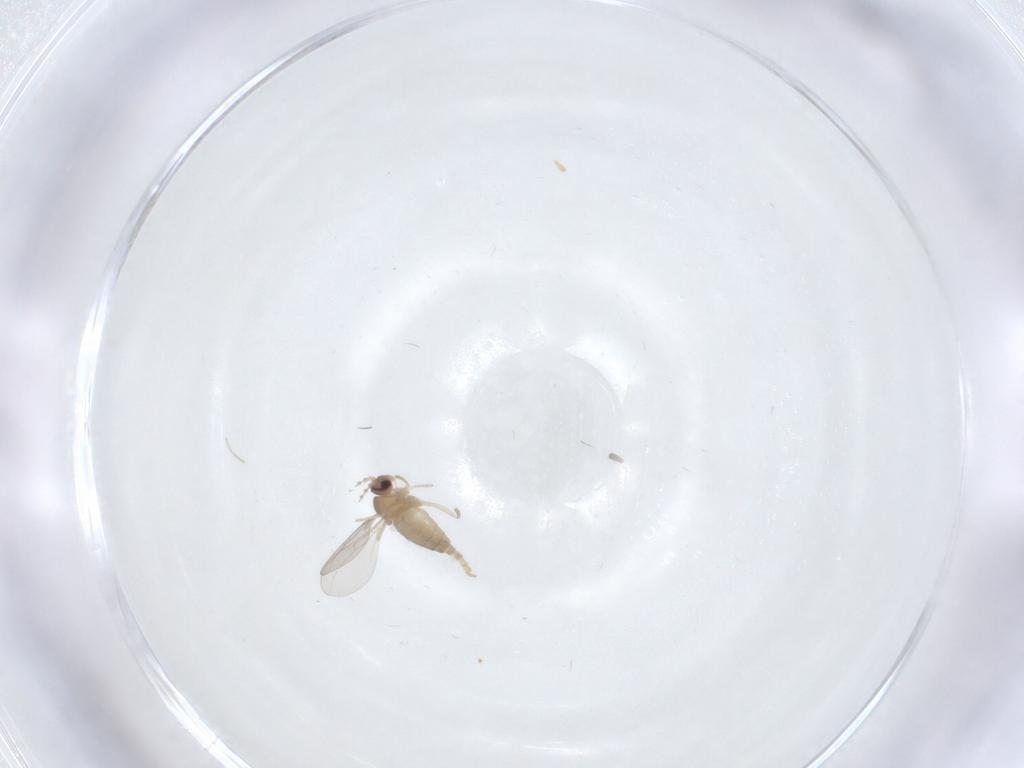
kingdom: Animalia
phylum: Arthropoda
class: Insecta
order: Diptera
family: Cecidomyiidae
